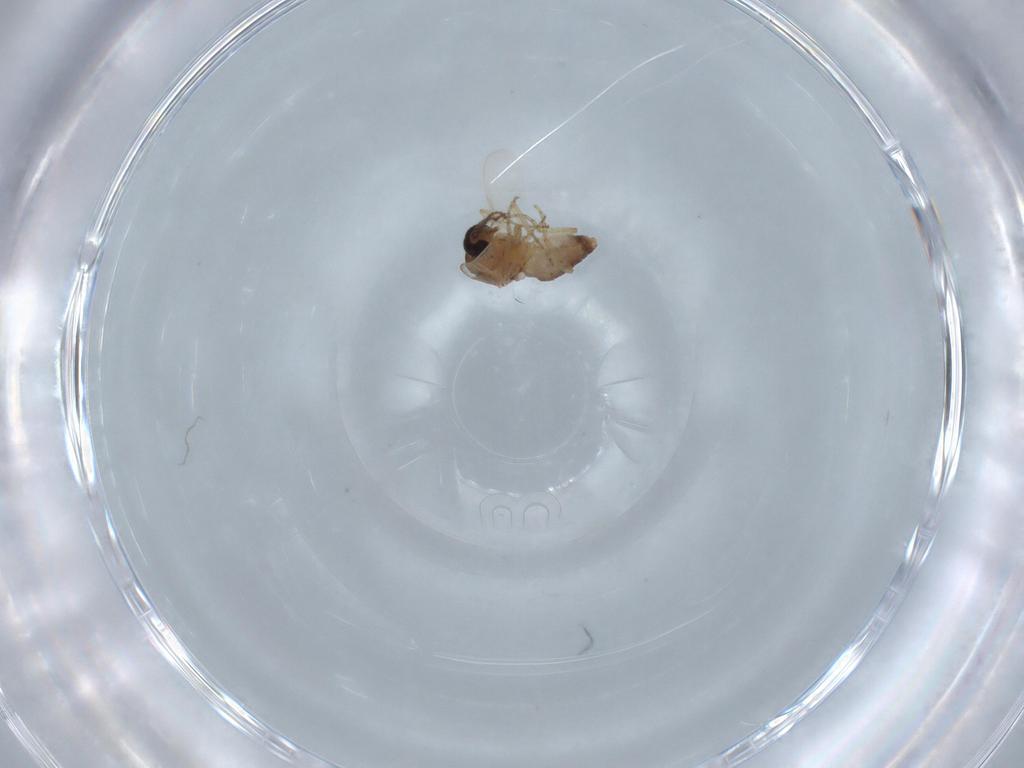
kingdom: Animalia
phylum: Arthropoda
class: Insecta
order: Diptera
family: Ceratopogonidae
